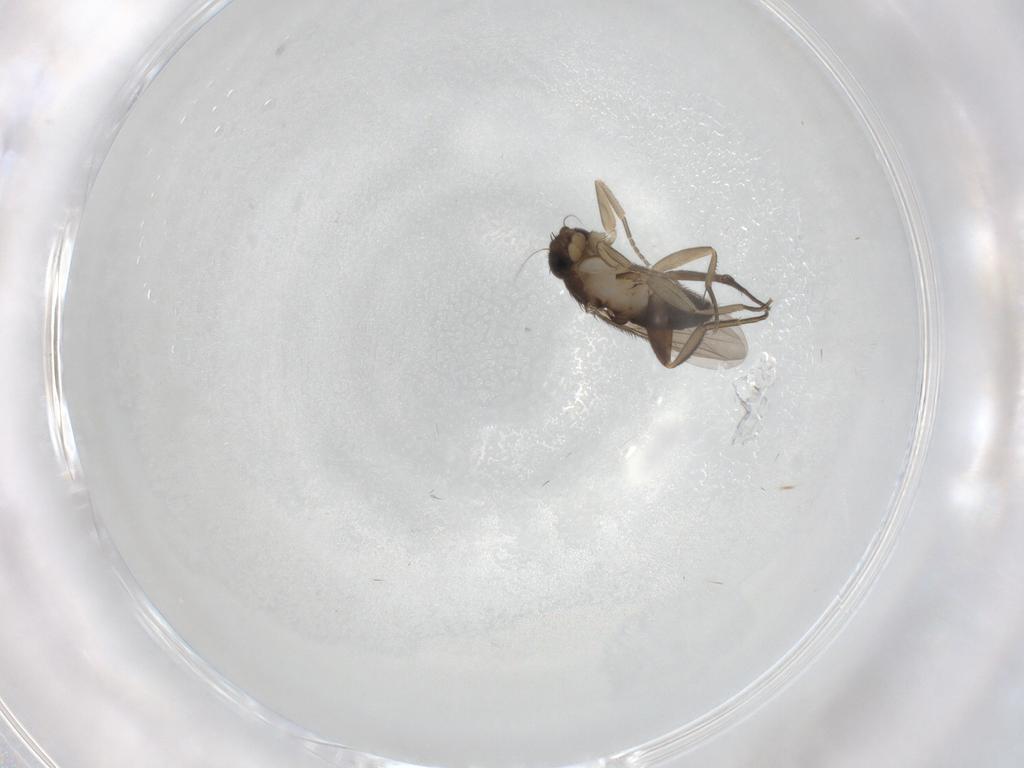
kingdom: Animalia
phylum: Arthropoda
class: Insecta
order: Diptera
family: Phoridae
